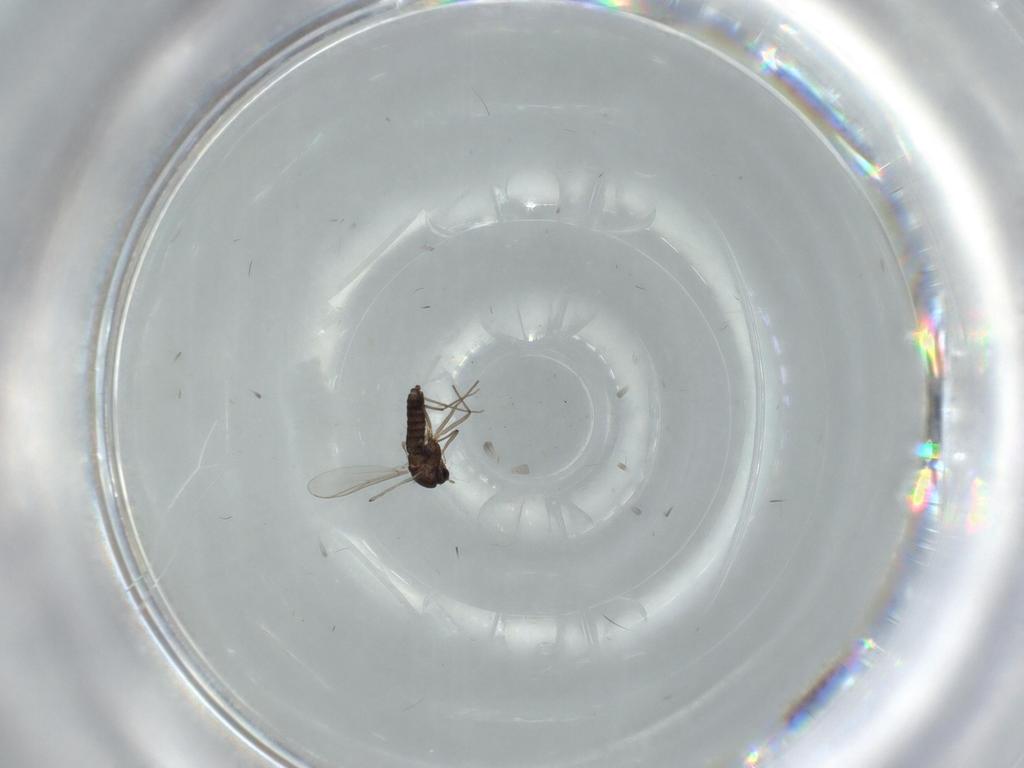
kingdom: Animalia
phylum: Arthropoda
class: Insecta
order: Diptera
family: Chironomidae
